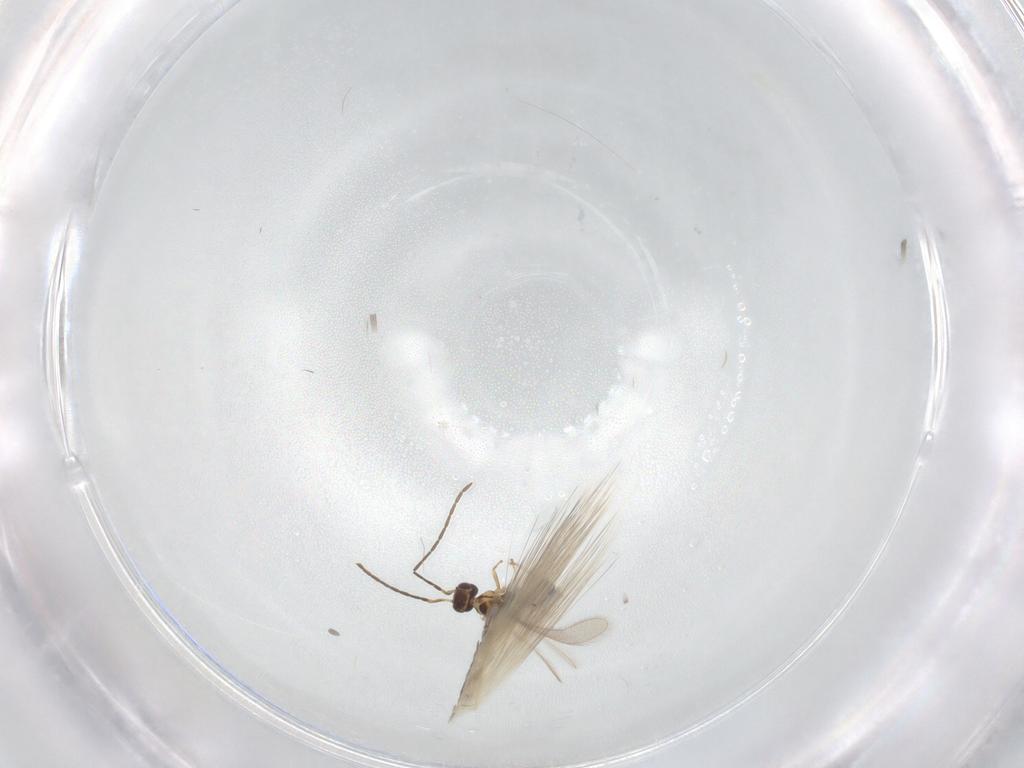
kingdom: Animalia
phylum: Arthropoda
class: Insecta
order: Hymenoptera
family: Mymaridae
